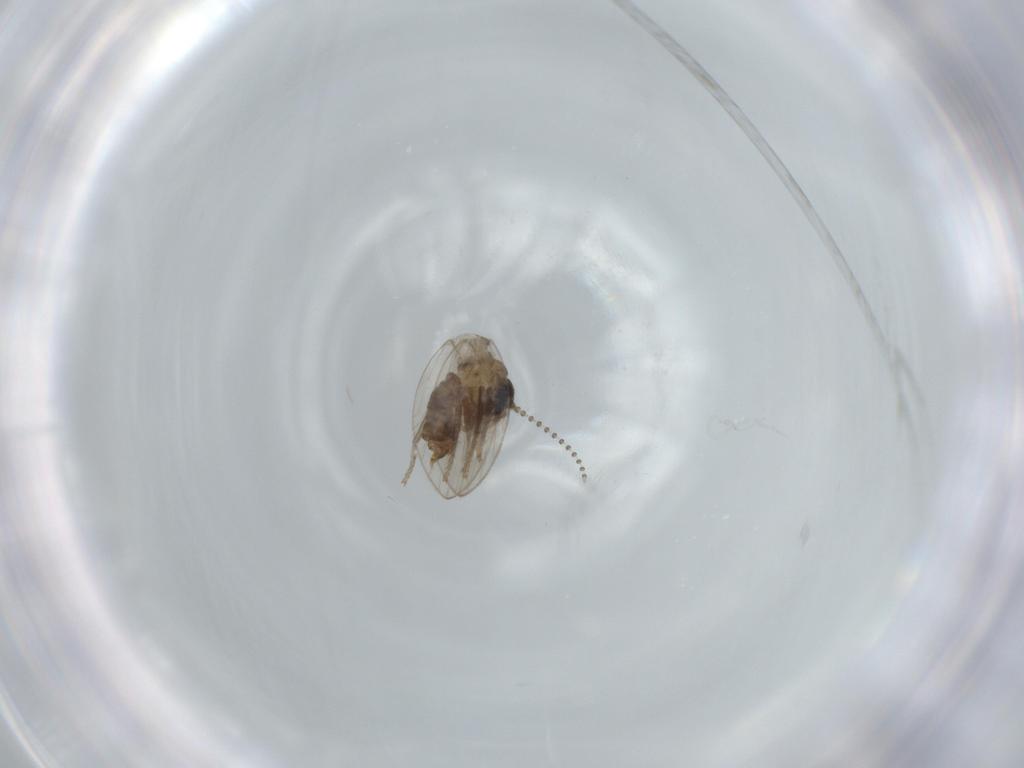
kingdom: Animalia
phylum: Arthropoda
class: Insecta
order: Diptera
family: Psychodidae
